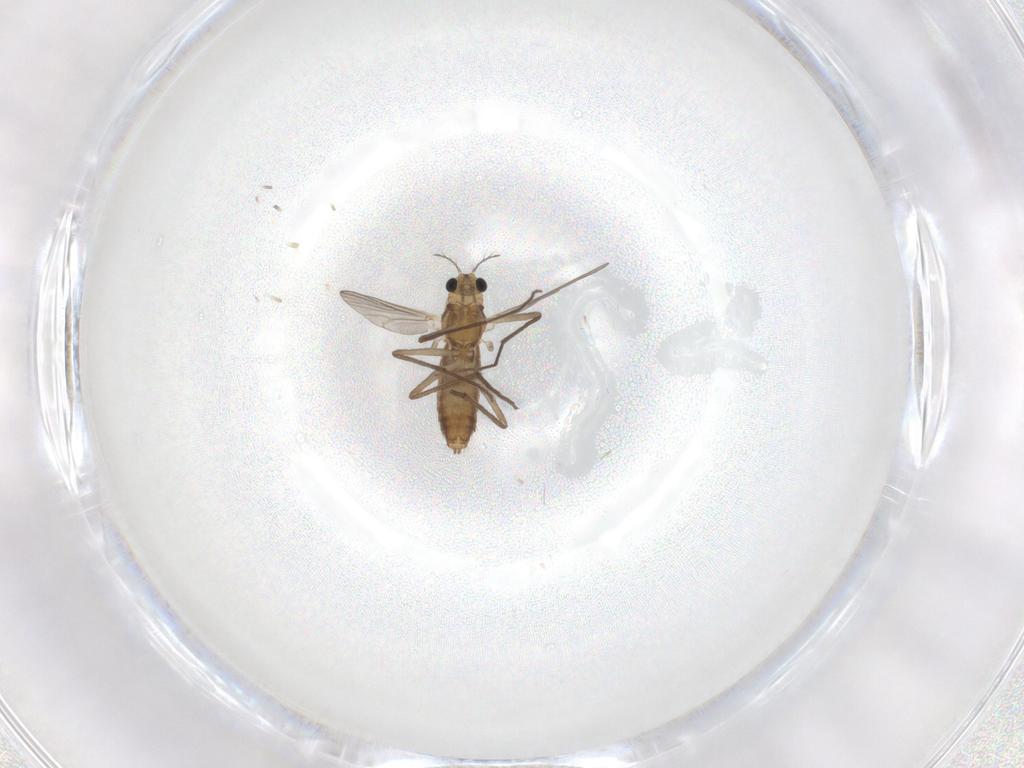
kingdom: Animalia
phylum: Arthropoda
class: Insecta
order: Diptera
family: Chironomidae
